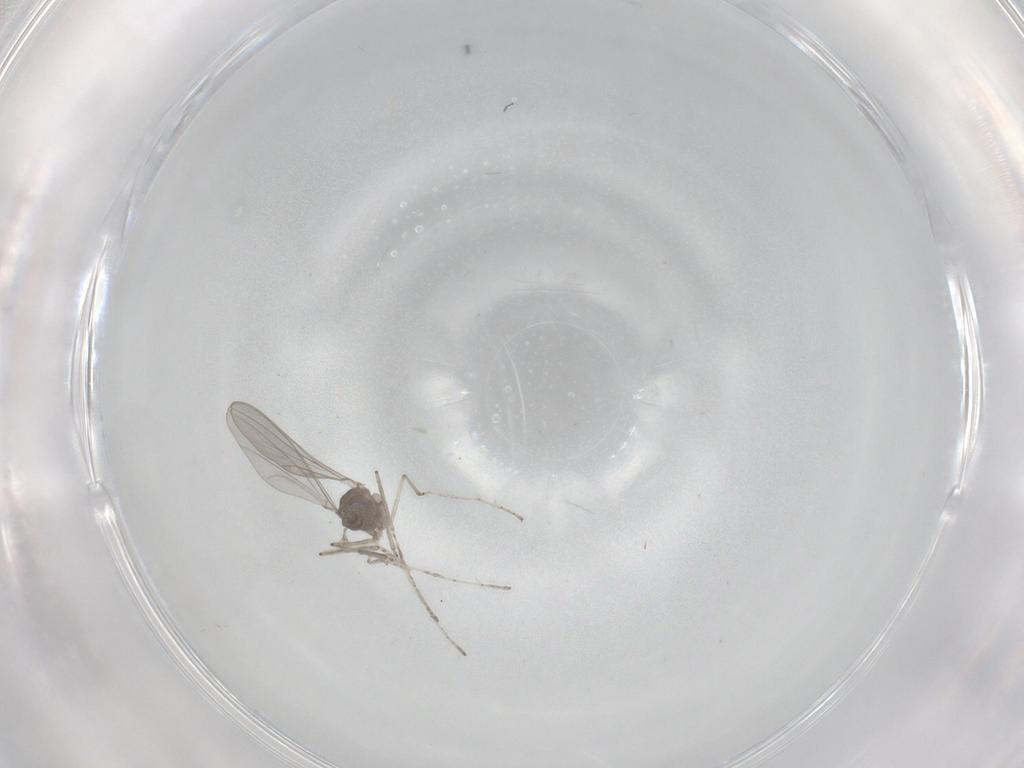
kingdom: Animalia
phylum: Arthropoda
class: Insecta
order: Diptera
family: Cecidomyiidae
